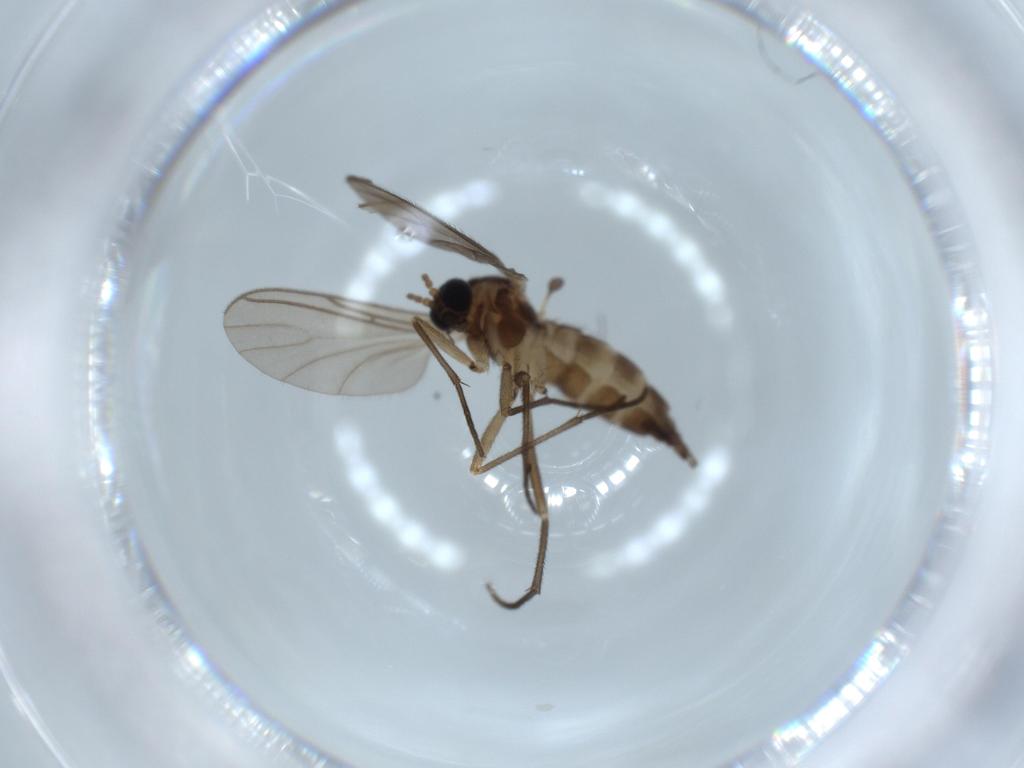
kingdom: Animalia
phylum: Arthropoda
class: Insecta
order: Diptera
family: Sciaridae
